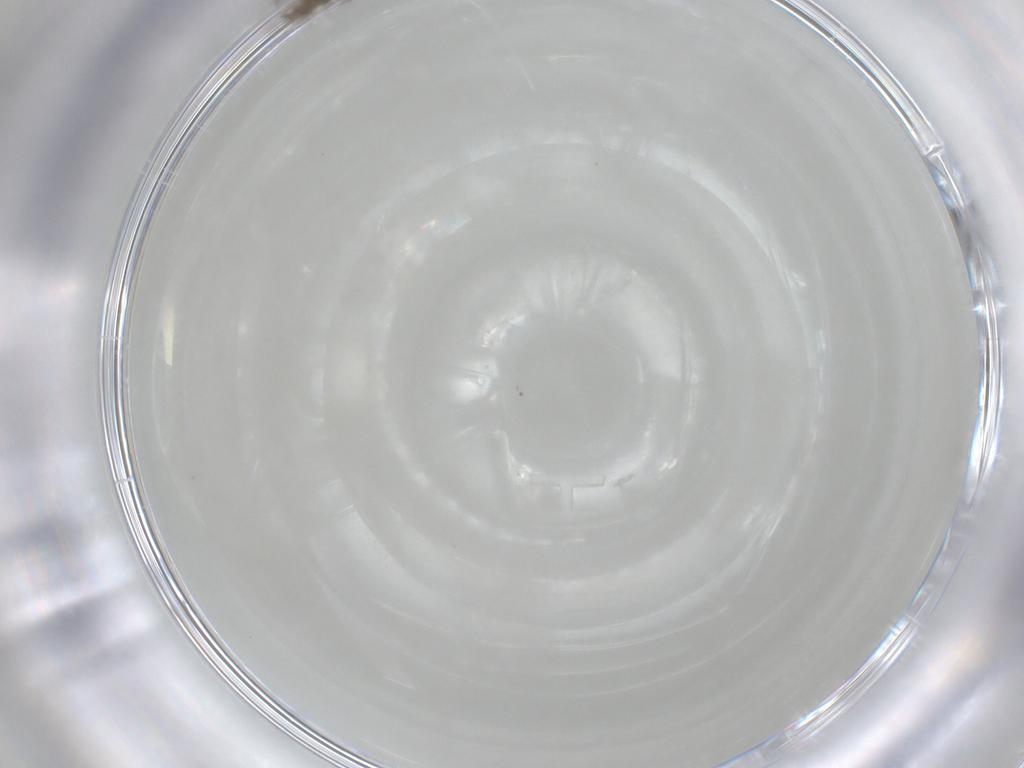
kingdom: Animalia
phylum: Arthropoda
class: Insecta
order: Diptera
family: Cecidomyiidae
